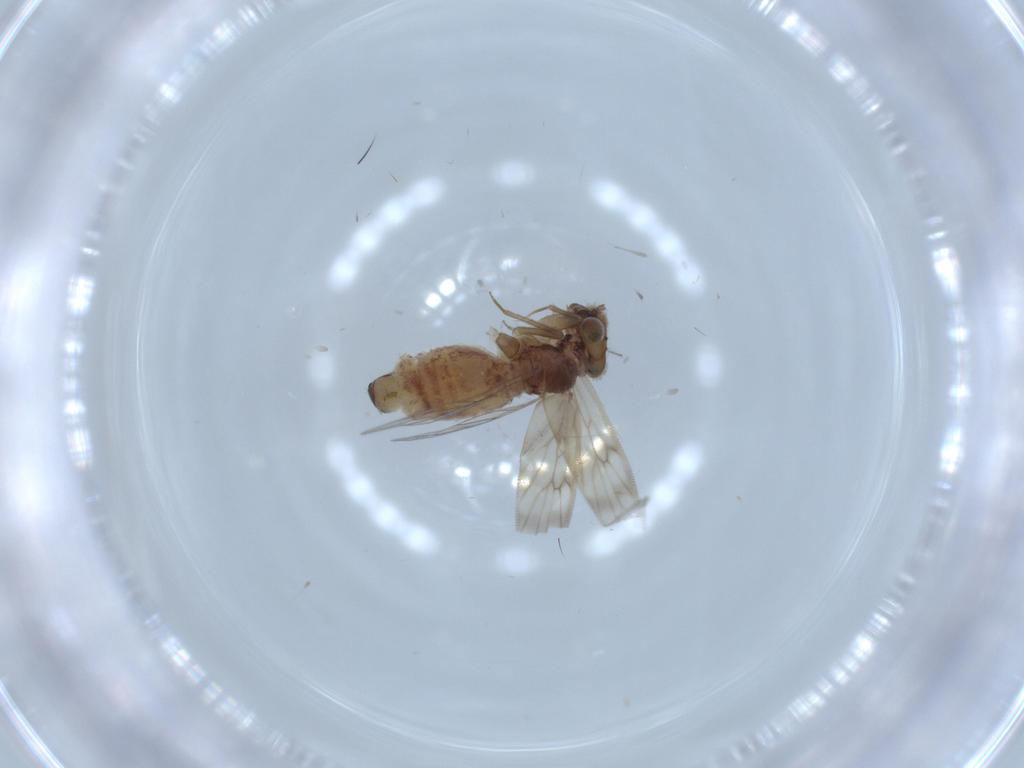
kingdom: Animalia
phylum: Arthropoda
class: Insecta
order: Psocodea
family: Lepidopsocidae
